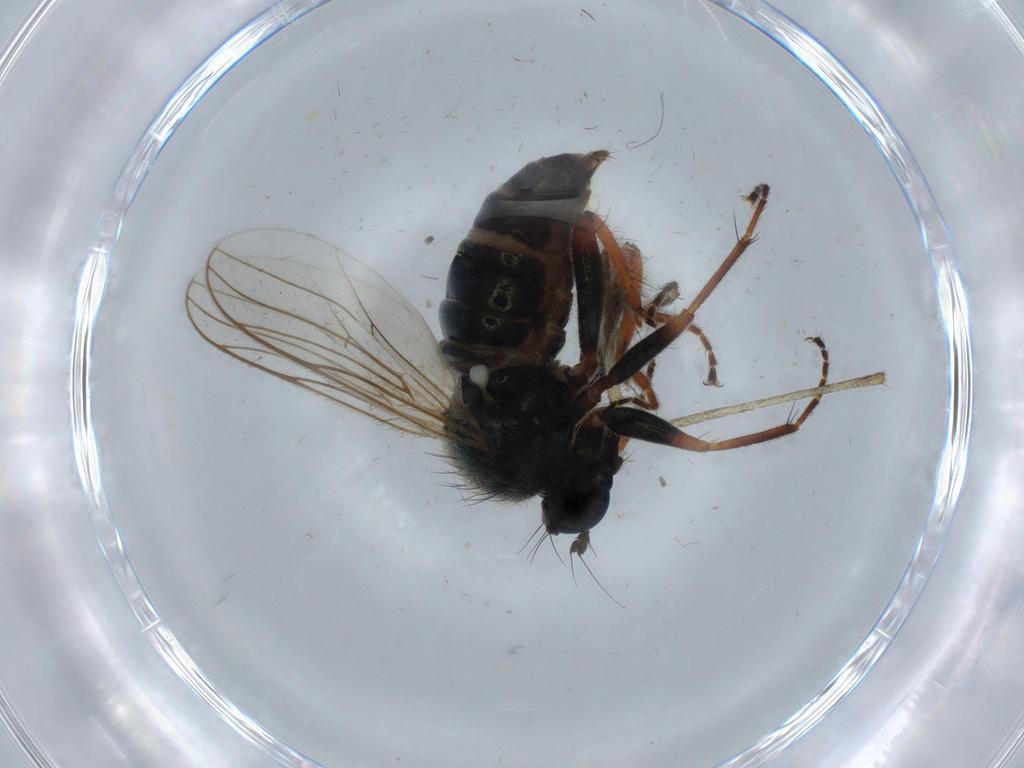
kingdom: Animalia
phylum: Arthropoda
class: Insecta
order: Diptera
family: Hybotidae
